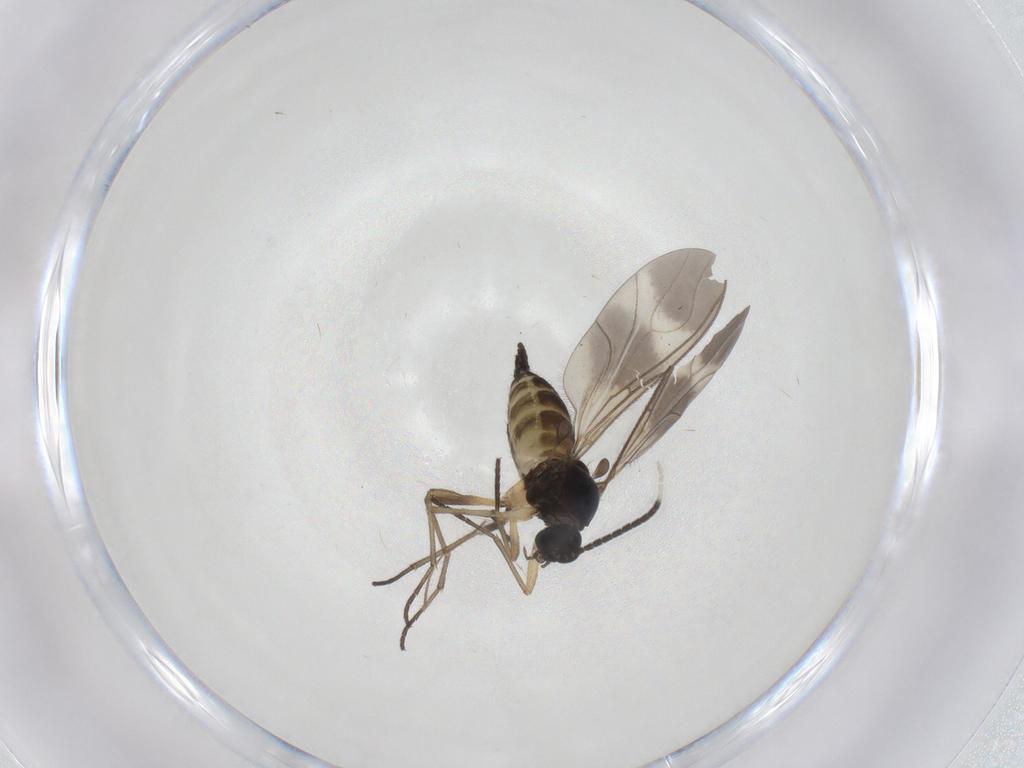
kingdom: Animalia
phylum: Arthropoda
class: Insecta
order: Diptera
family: Sciaridae
